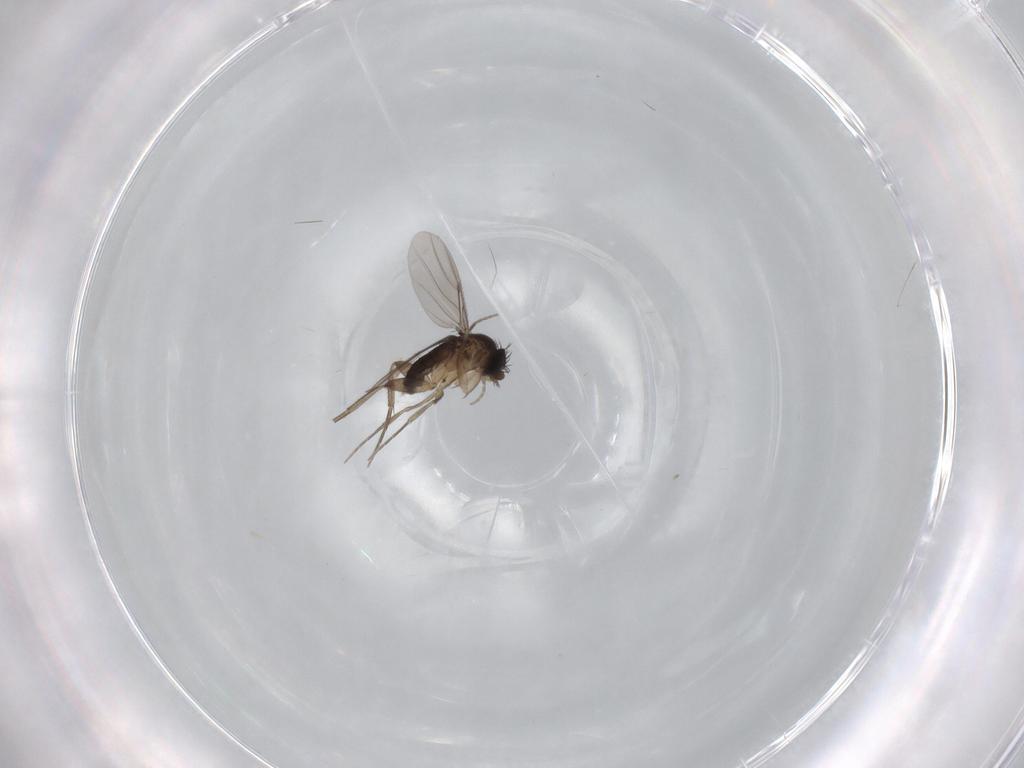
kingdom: Animalia
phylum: Arthropoda
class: Insecta
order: Diptera
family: Phoridae
